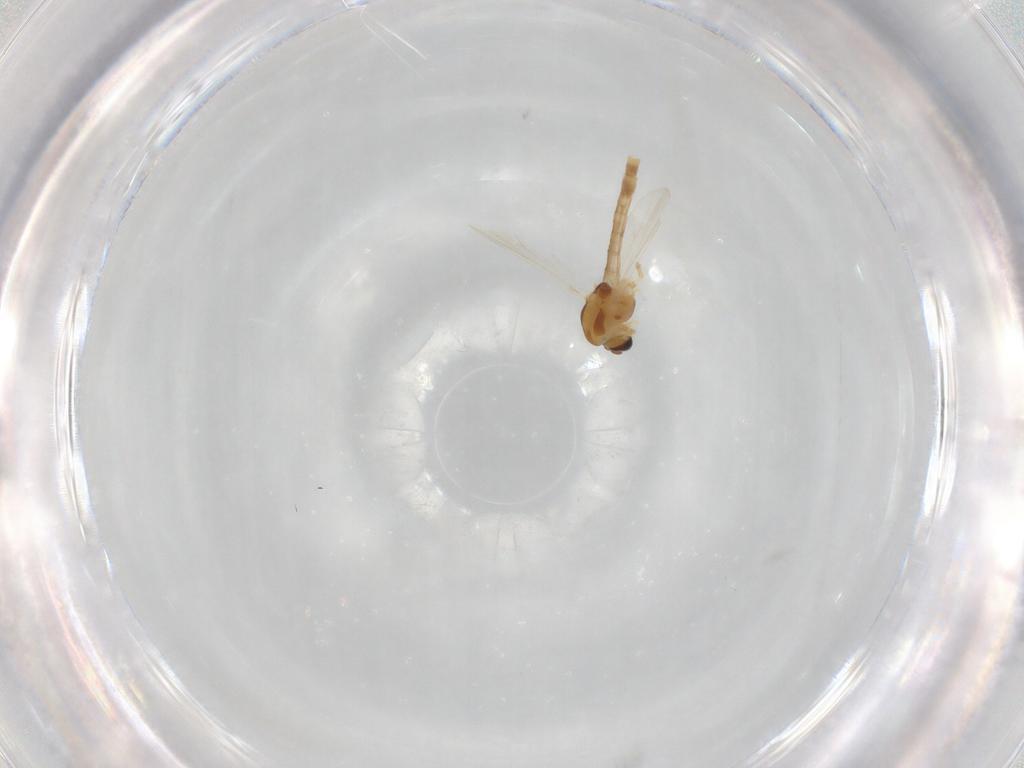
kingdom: Animalia
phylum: Arthropoda
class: Insecta
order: Diptera
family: Chironomidae
